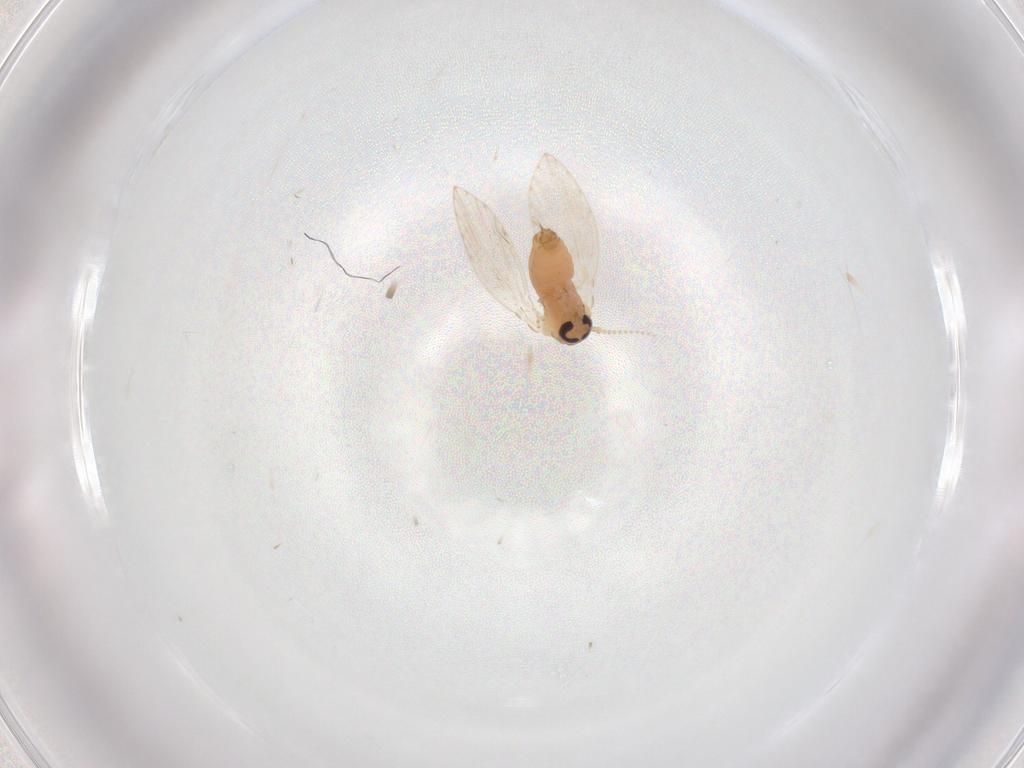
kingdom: Animalia
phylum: Arthropoda
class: Insecta
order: Diptera
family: Psychodidae
